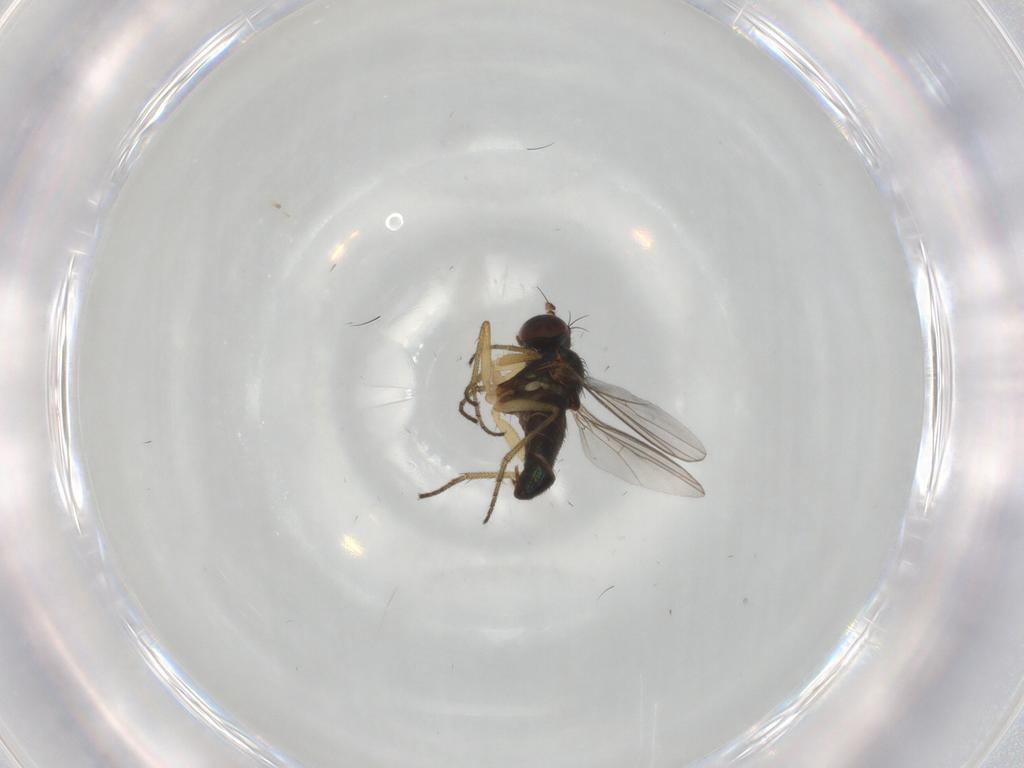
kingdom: Animalia
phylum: Arthropoda
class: Insecta
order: Diptera
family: Dolichopodidae
